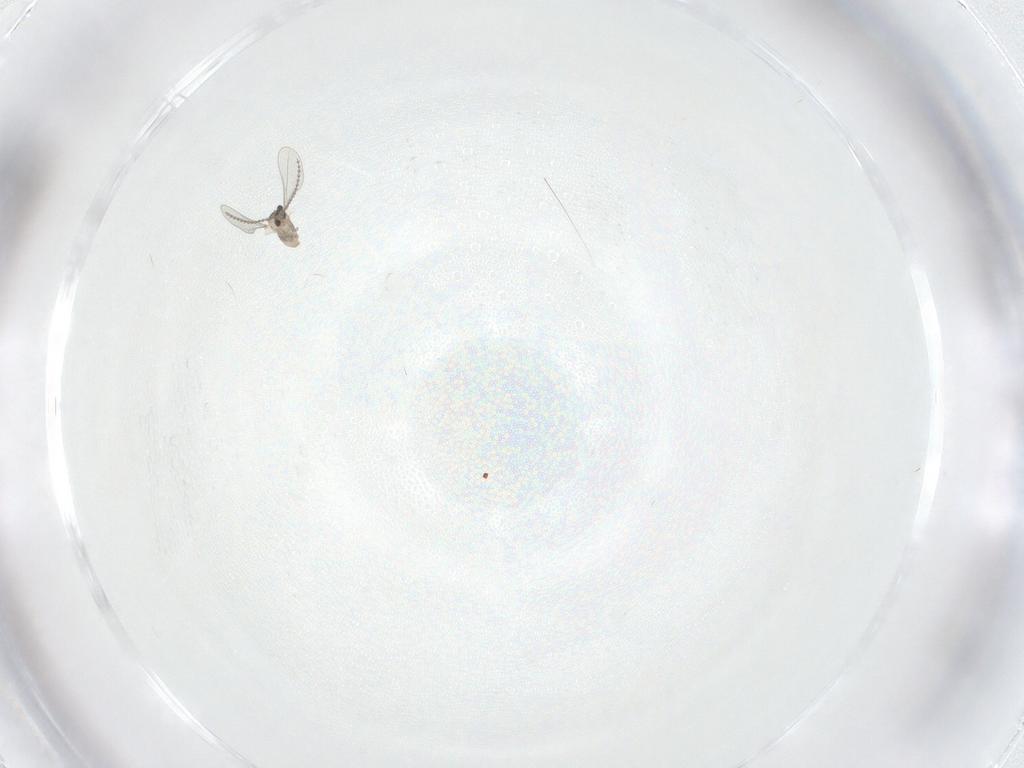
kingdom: Animalia
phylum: Arthropoda
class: Insecta
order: Diptera
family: Cecidomyiidae
